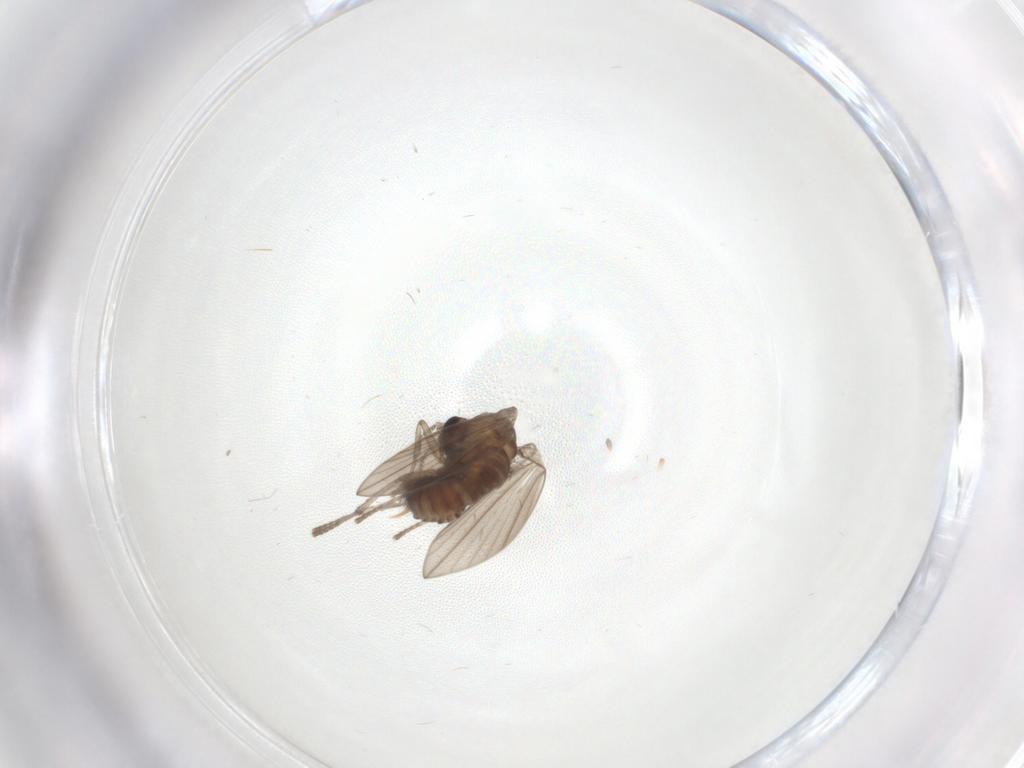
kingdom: Animalia
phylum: Arthropoda
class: Insecta
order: Diptera
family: Psychodidae
